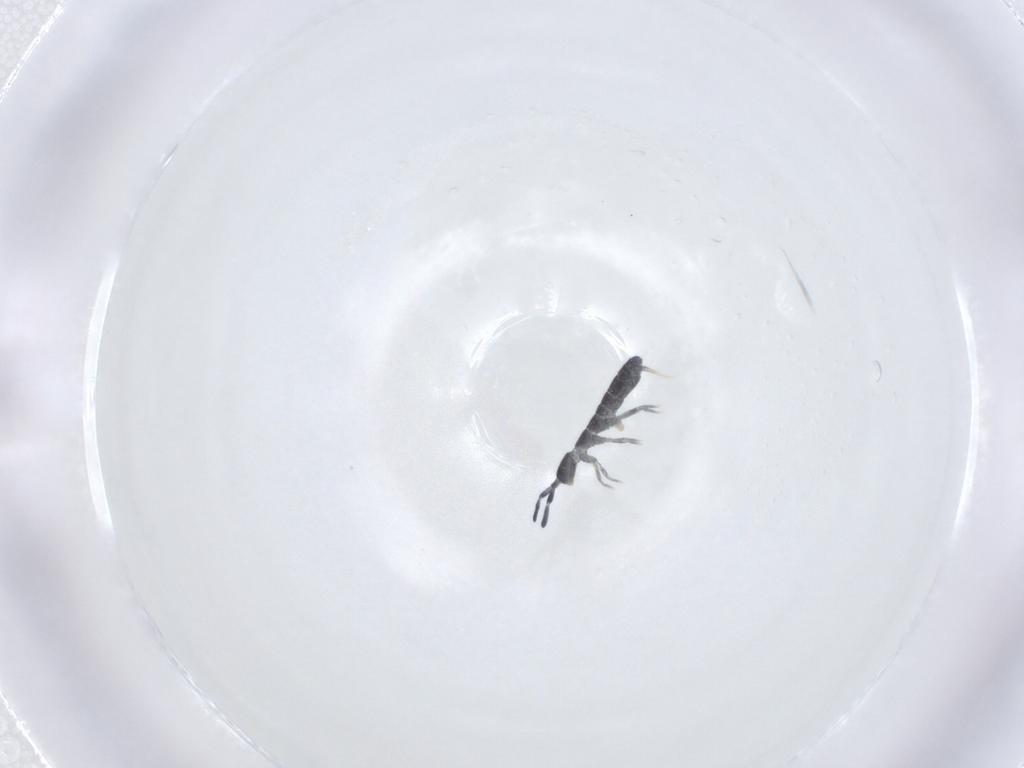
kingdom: Animalia
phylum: Arthropoda
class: Collembola
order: Entomobryomorpha
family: Isotomidae
